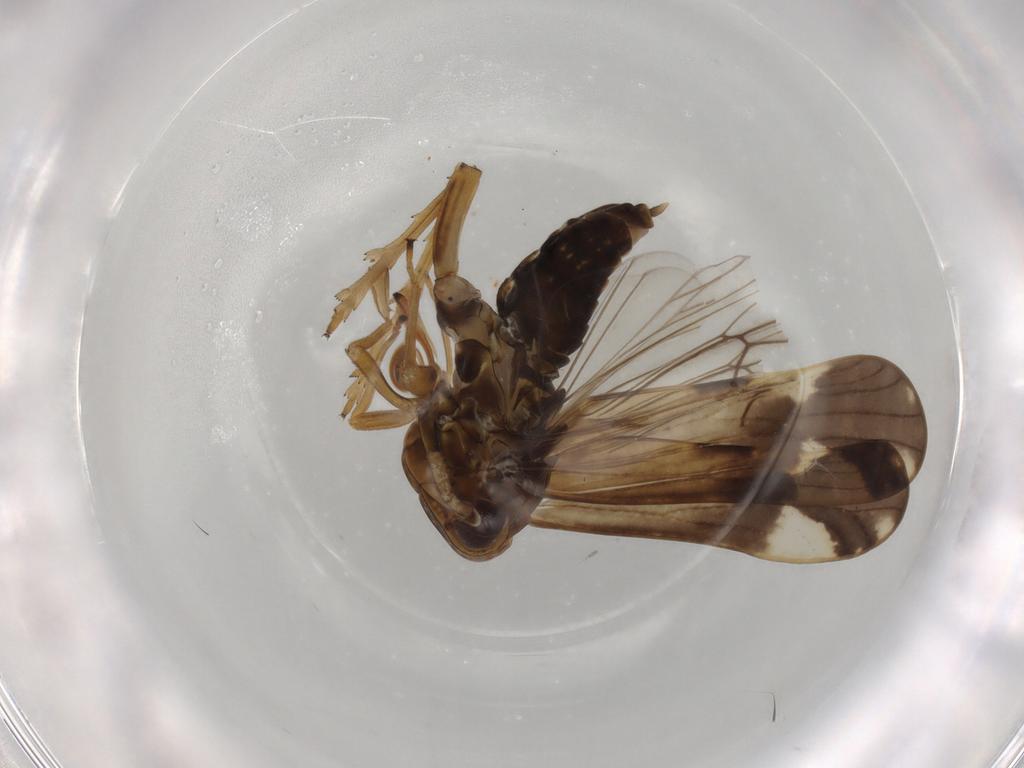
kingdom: Animalia
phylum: Arthropoda
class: Insecta
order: Hemiptera
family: Delphacidae
